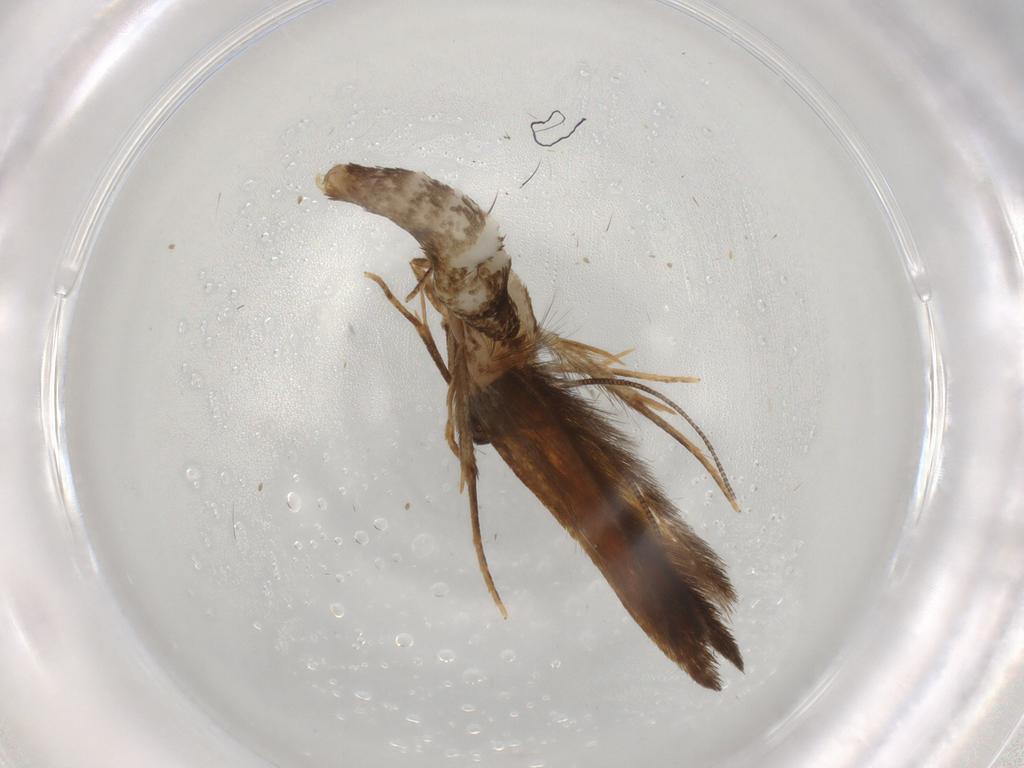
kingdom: Animalia
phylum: Arthropoda
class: Insecta
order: Lepidoptera
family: Tineidae
